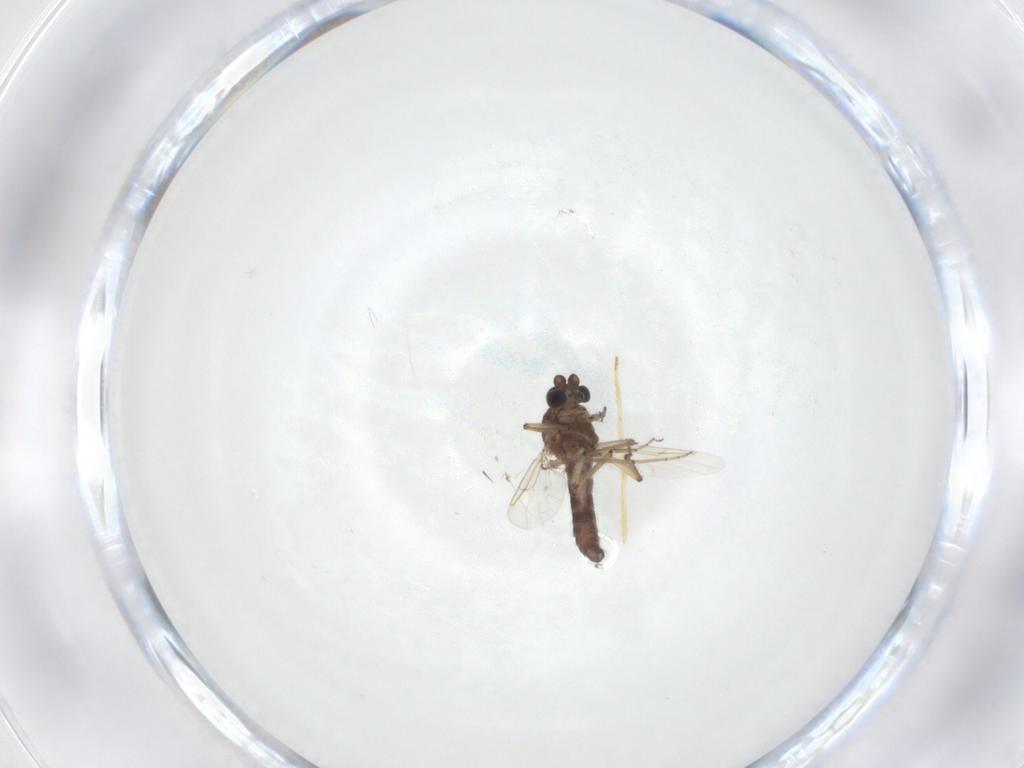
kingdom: Animalia
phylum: Arthropoda
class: Insecta
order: Diptera
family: Ceratopogonidae
